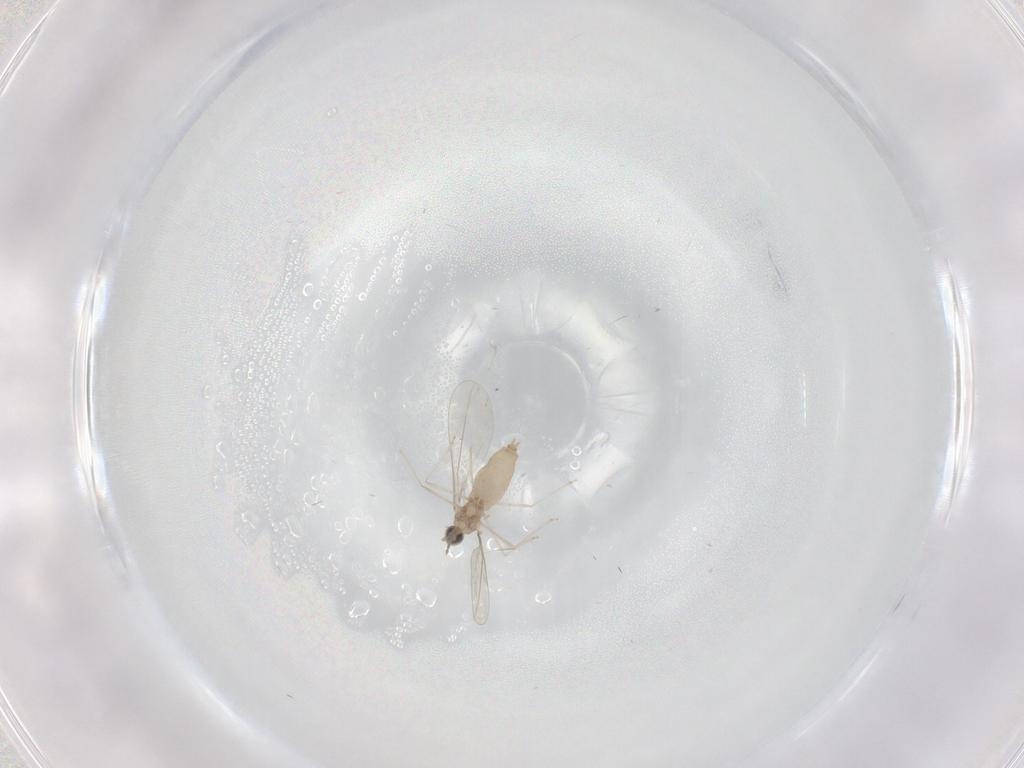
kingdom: Animalia
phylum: Arthropoda
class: Insecta
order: Diptera
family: Cecidomyiidae
